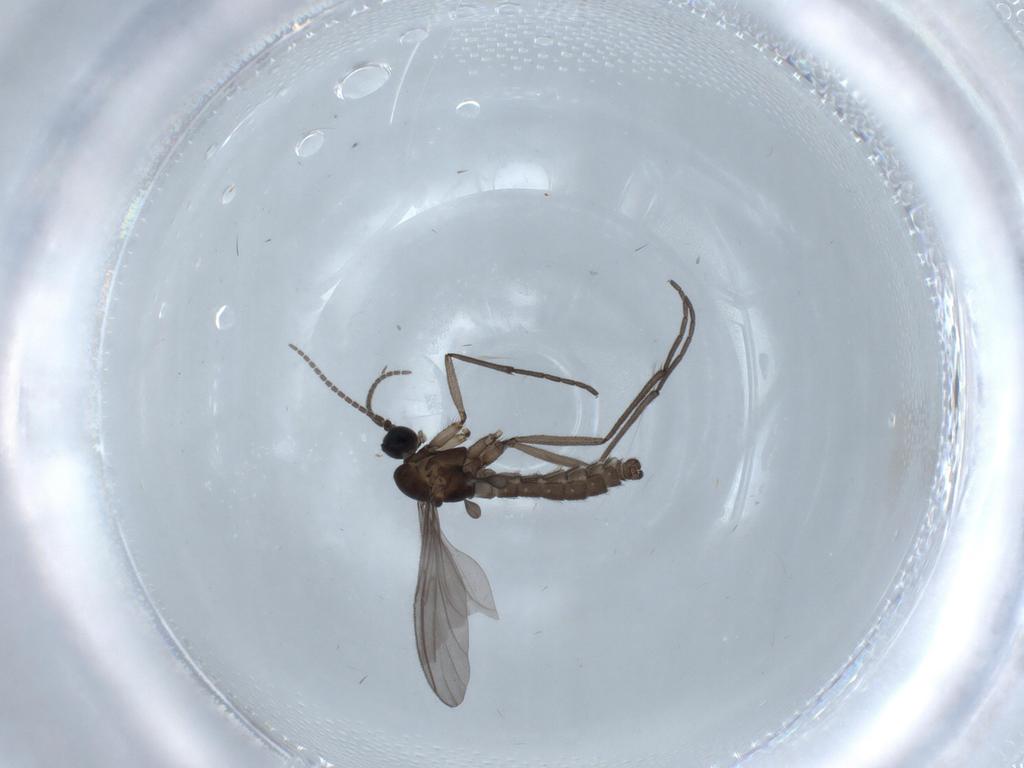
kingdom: Animalia
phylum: Arthropoda
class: Insecta
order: Diptera
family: Sciaridae
